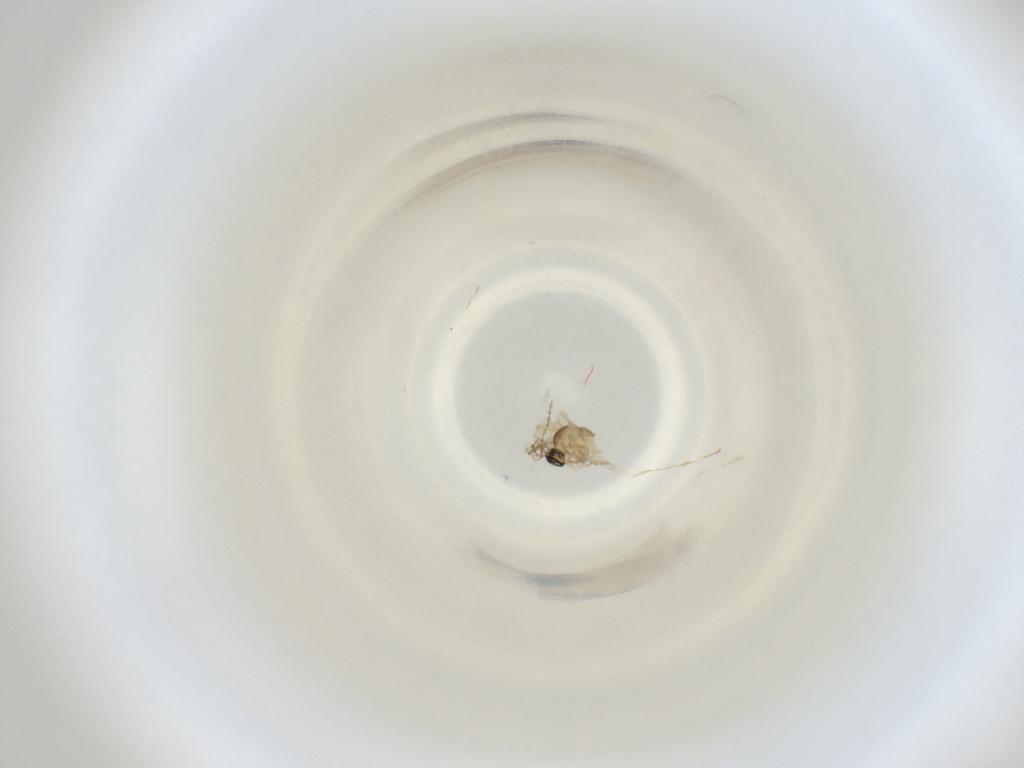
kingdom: Animalia
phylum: Arthropoda
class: Insecta
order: Diptera
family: Cecidomyiidae
